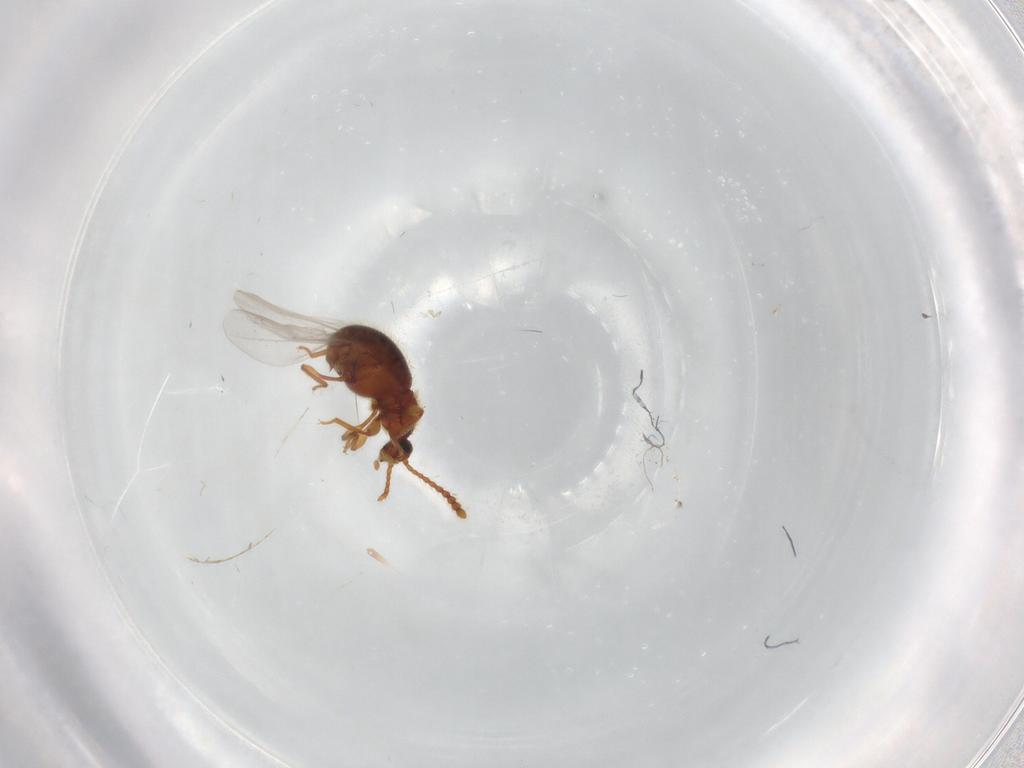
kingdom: Animalia
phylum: Arthropoda
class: Insecta
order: Coleoptera
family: Staphylinidae
